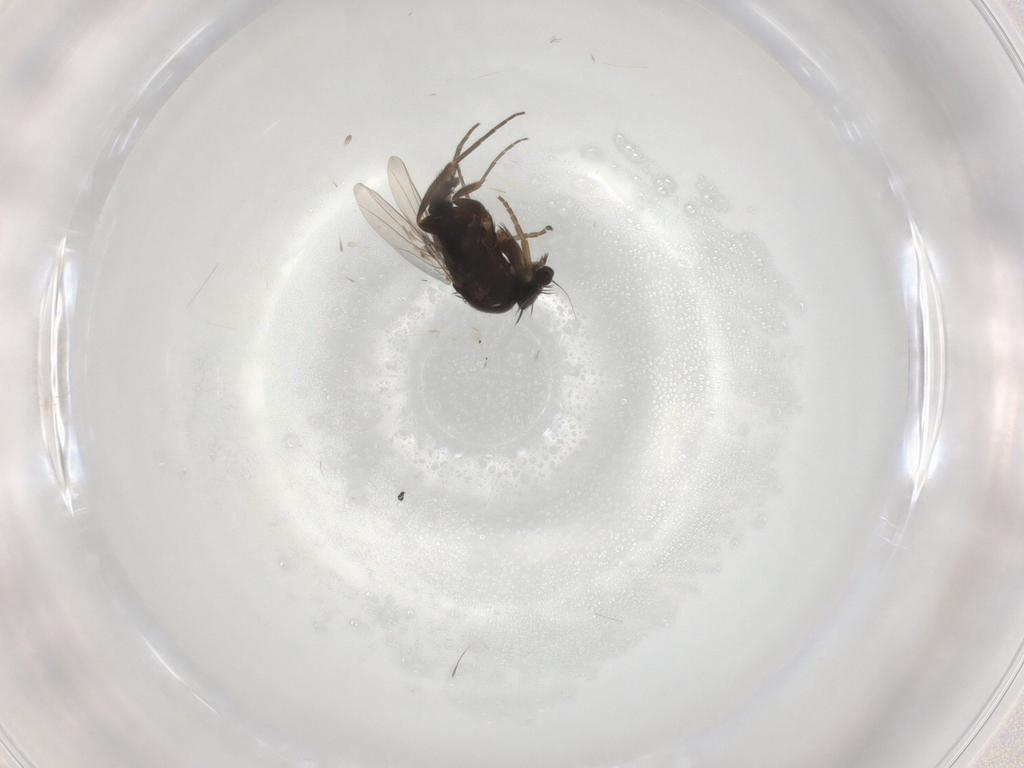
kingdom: Animalia
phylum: Arthropoda
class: Insecta
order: Diptera
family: Phoridae
